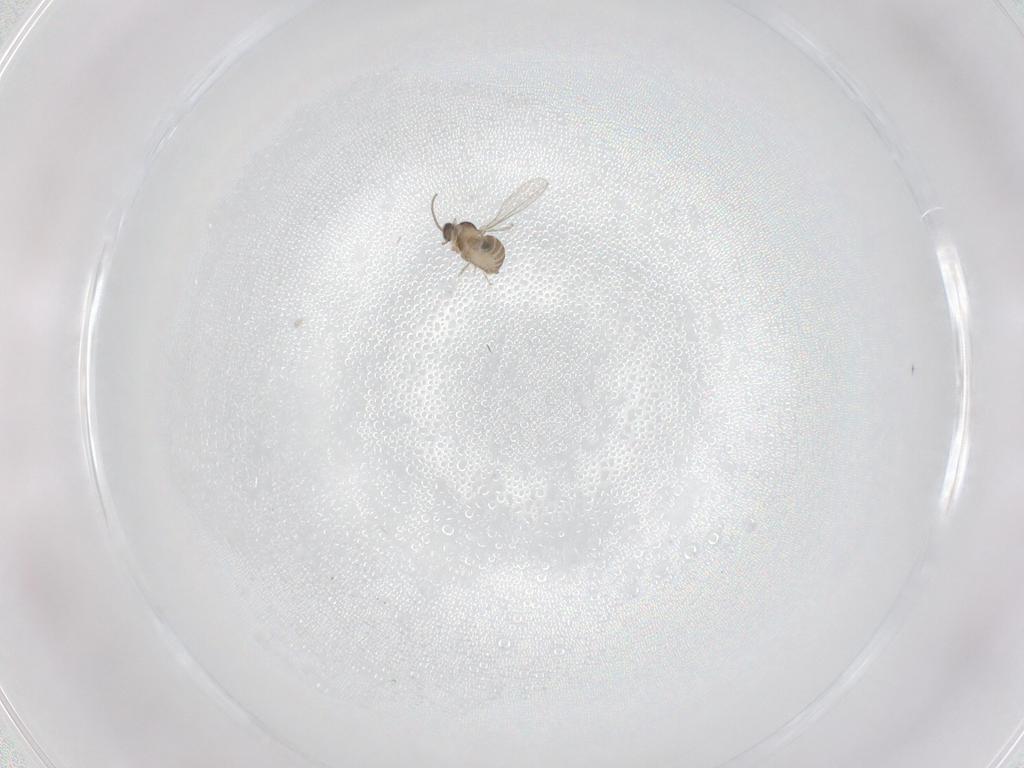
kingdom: Animalia
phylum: Arthropoda
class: Insecta
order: Diptera
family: Cecidomyiidae
